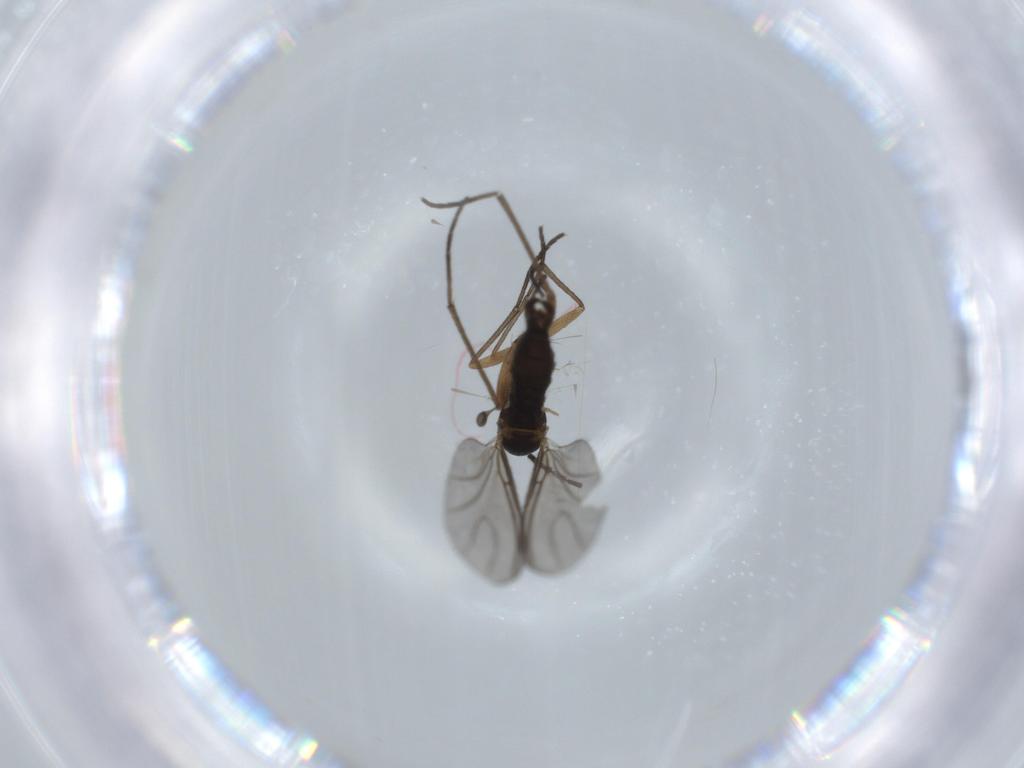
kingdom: Animalia
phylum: Arthropoda
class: Insecta
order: Diptera
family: Sciaridae
